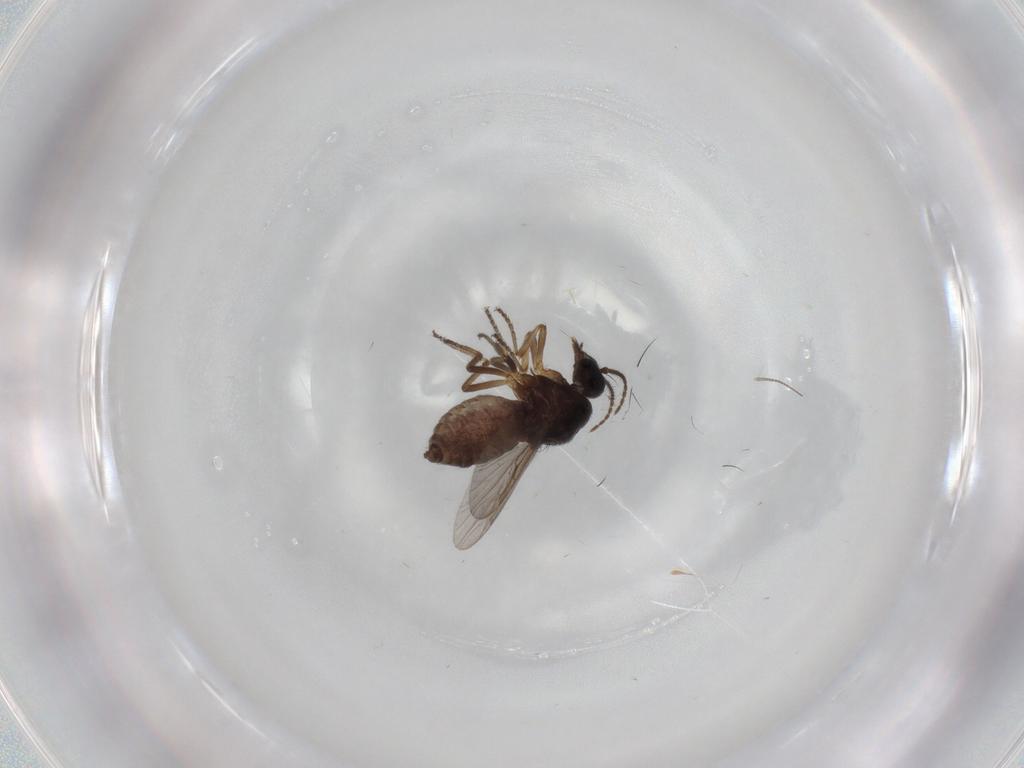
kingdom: Animalia
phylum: Arthropoda
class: Insecta
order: Diptera
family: Ceratopogonidae
